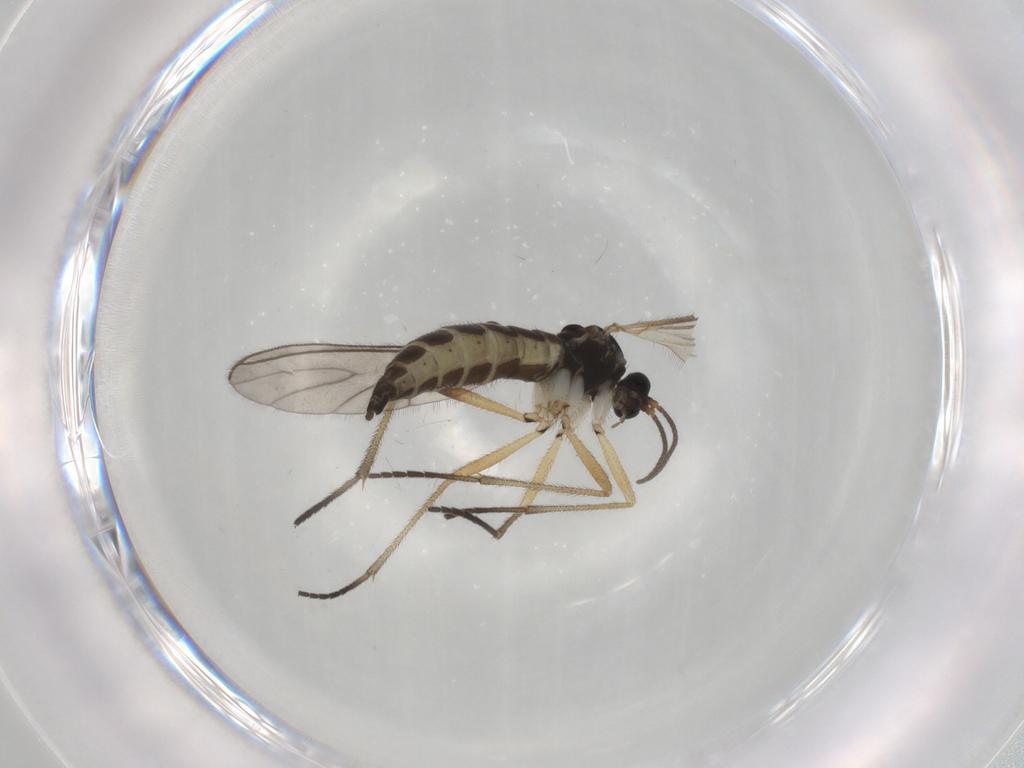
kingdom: Animalia
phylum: Arthropoda
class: Insecta
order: Diptera
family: Sciaridae
